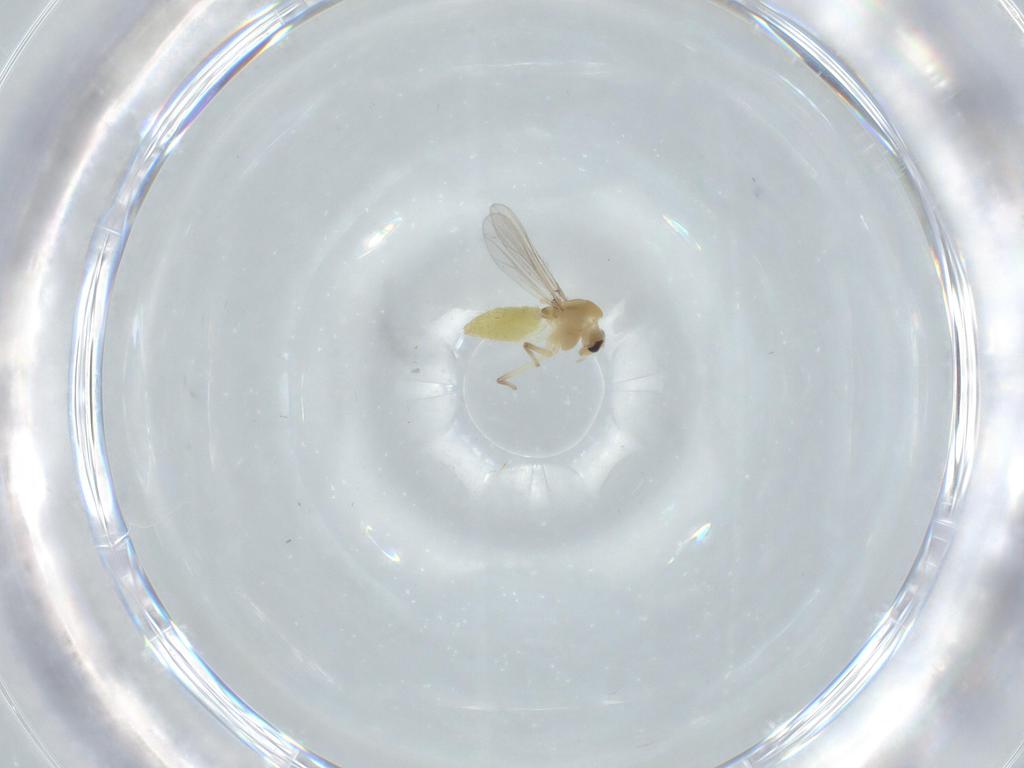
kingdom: Animalia
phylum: Arthropoda
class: Insecta
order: Diptera
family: Chironomidae
